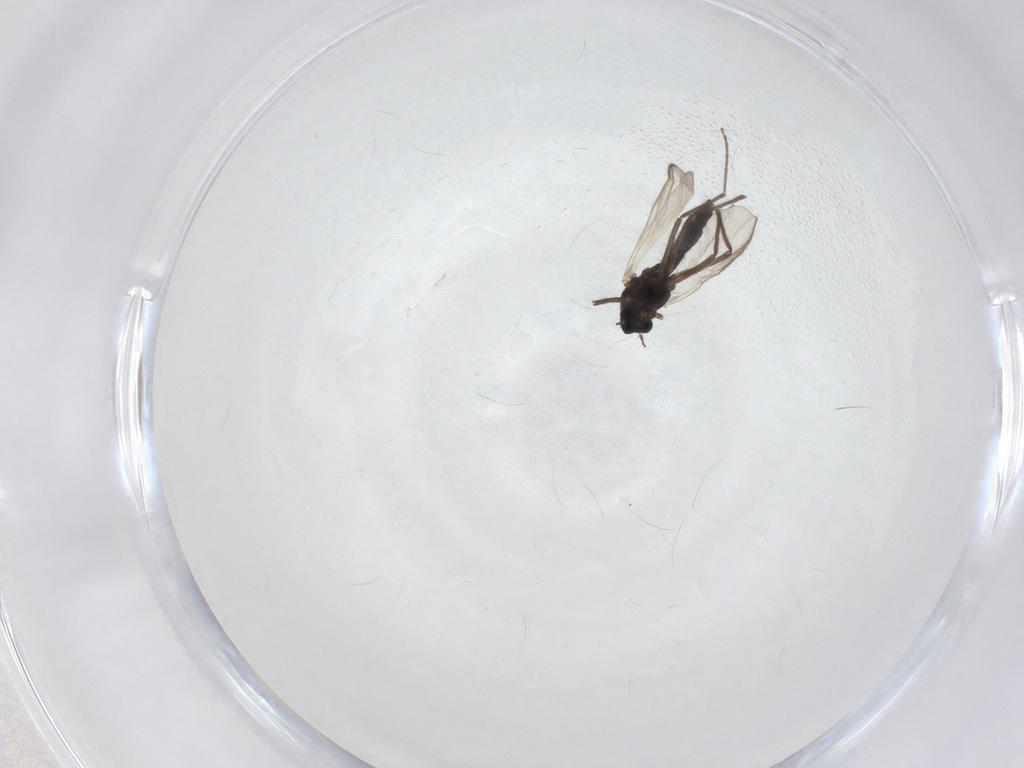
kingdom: Animalia
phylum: Arthropoda
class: Insecta
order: Diptera
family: Chironomidae
